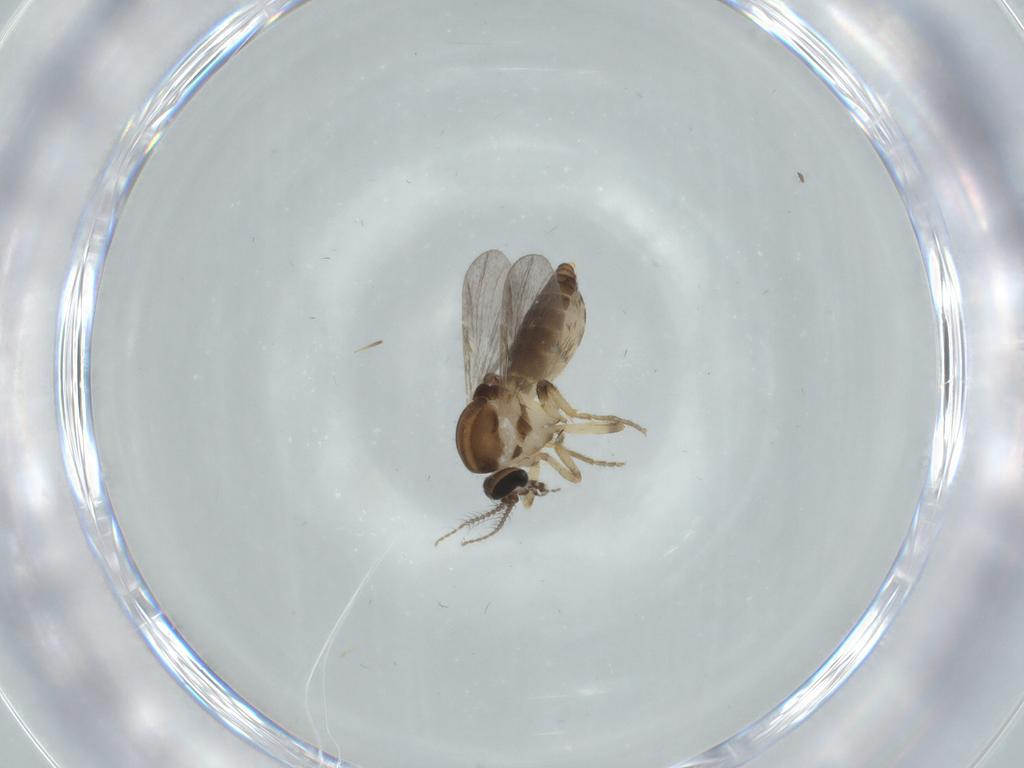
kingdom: Animalia
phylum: Arthropoda
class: Insecta
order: Diptera
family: Ceratopogonidae
